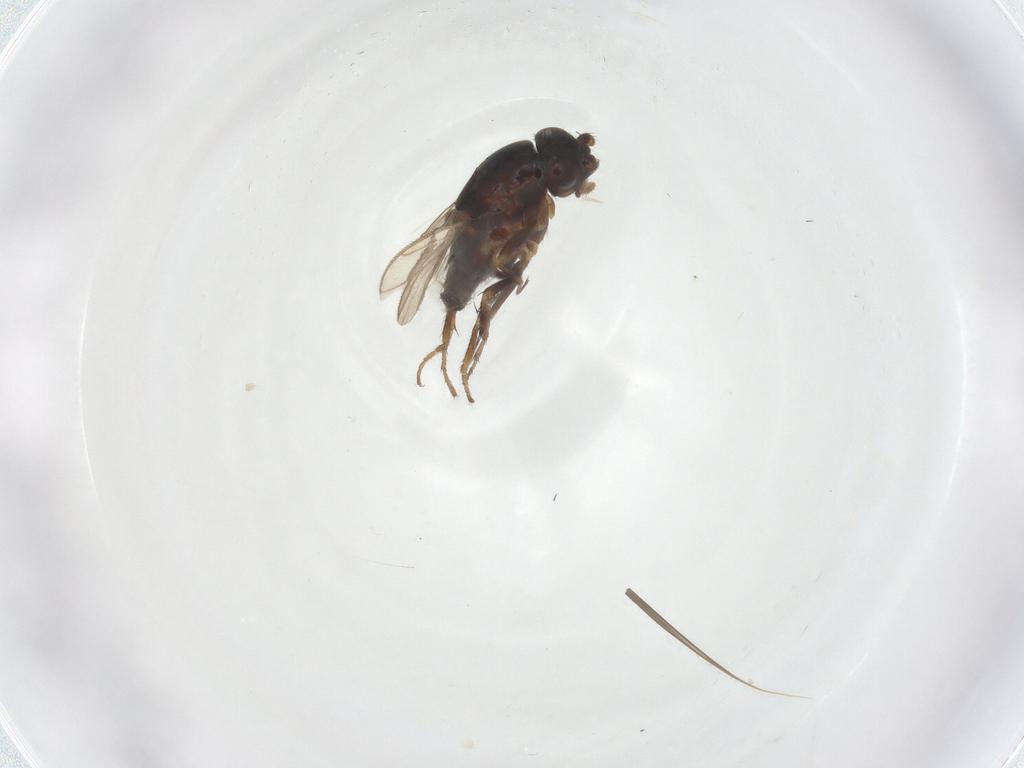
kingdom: Animalia
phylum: Arthropoda
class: Insecta
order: Diptera
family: Sphaeroceridae
